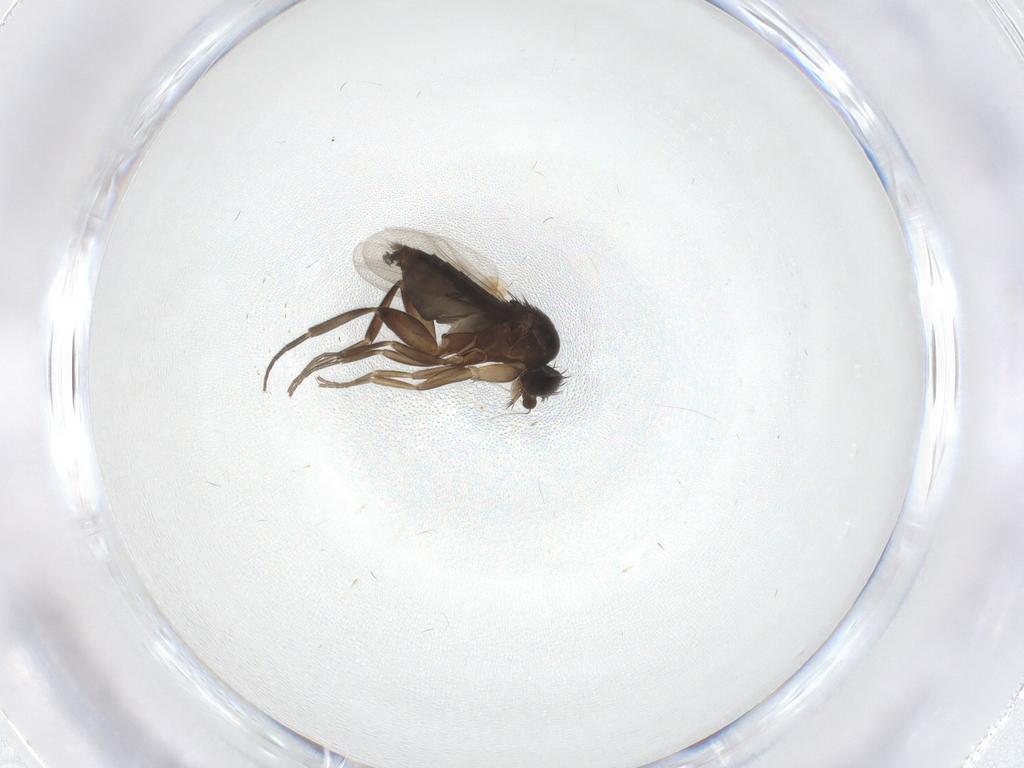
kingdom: Animalia
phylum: Arthropoda
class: Insecta
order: Diptera
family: Phoridae
